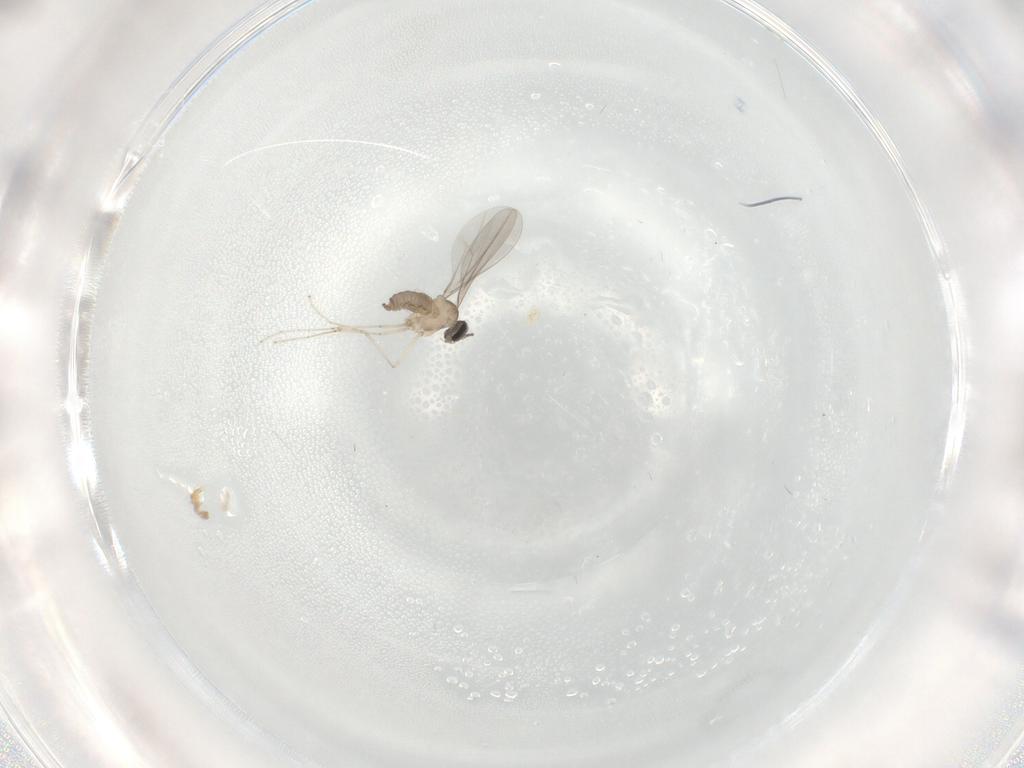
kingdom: Animalia
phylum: Arthropoda
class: Insecta
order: Diptera
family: Cecidomyiidae
